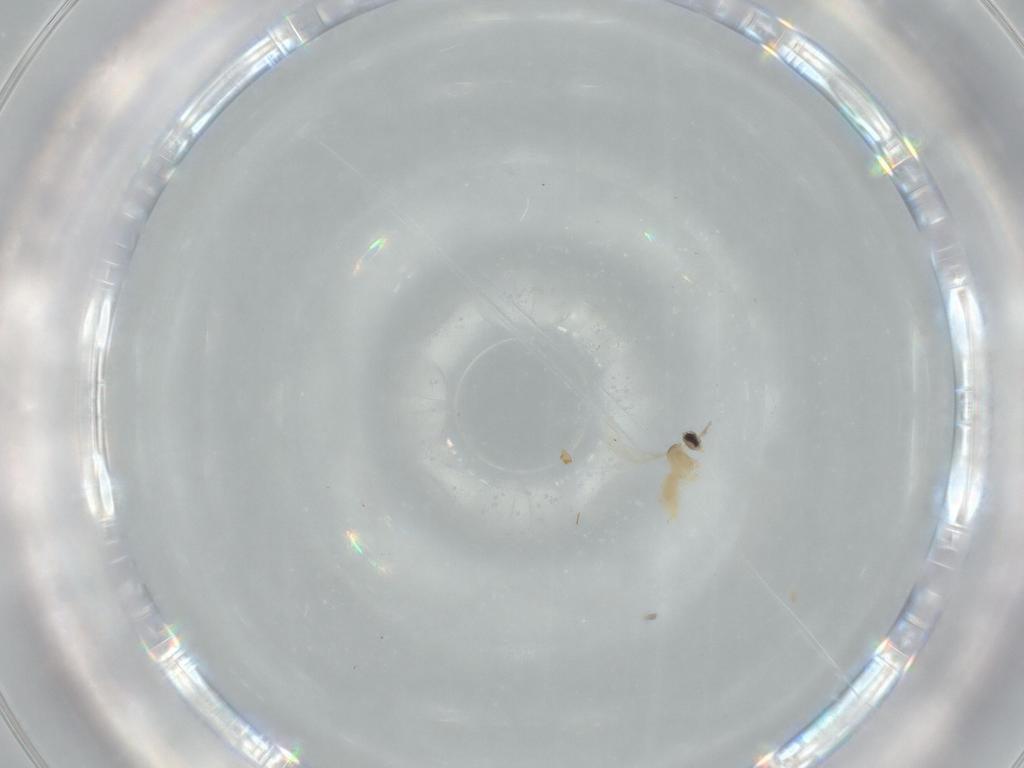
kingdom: Animalia
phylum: Arthropoda
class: Insecta
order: Diptera
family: Cecidomyiidae
